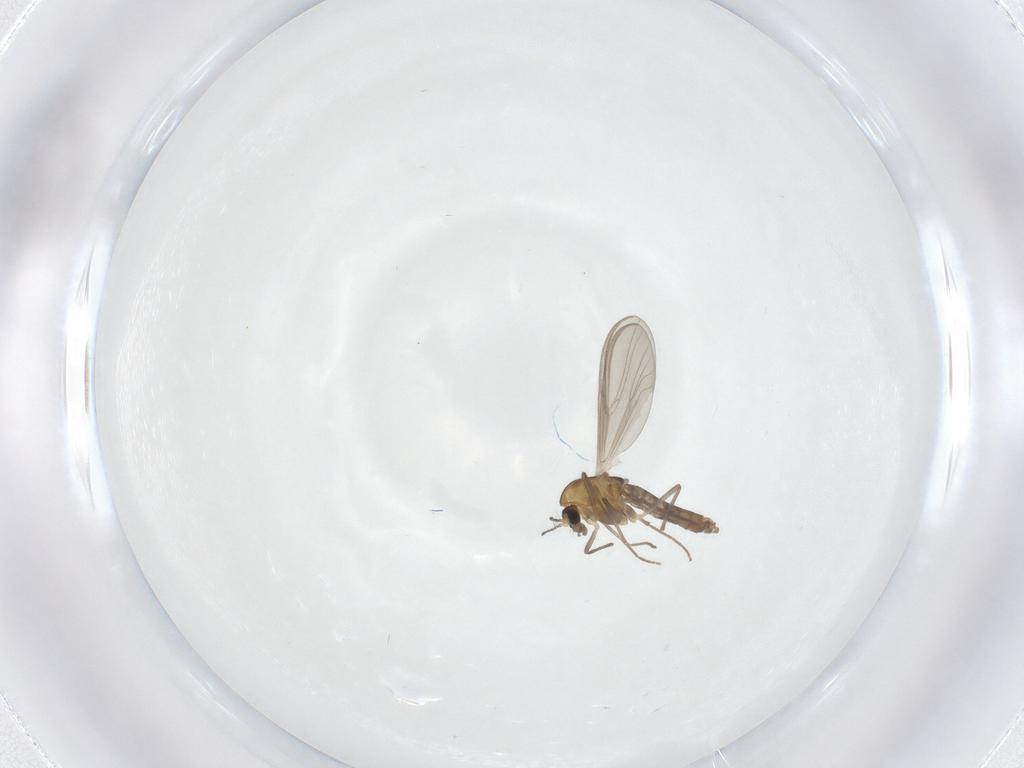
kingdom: Animalia
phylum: Arthropoda
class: Insecta
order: Diptera
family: Chironomidae
